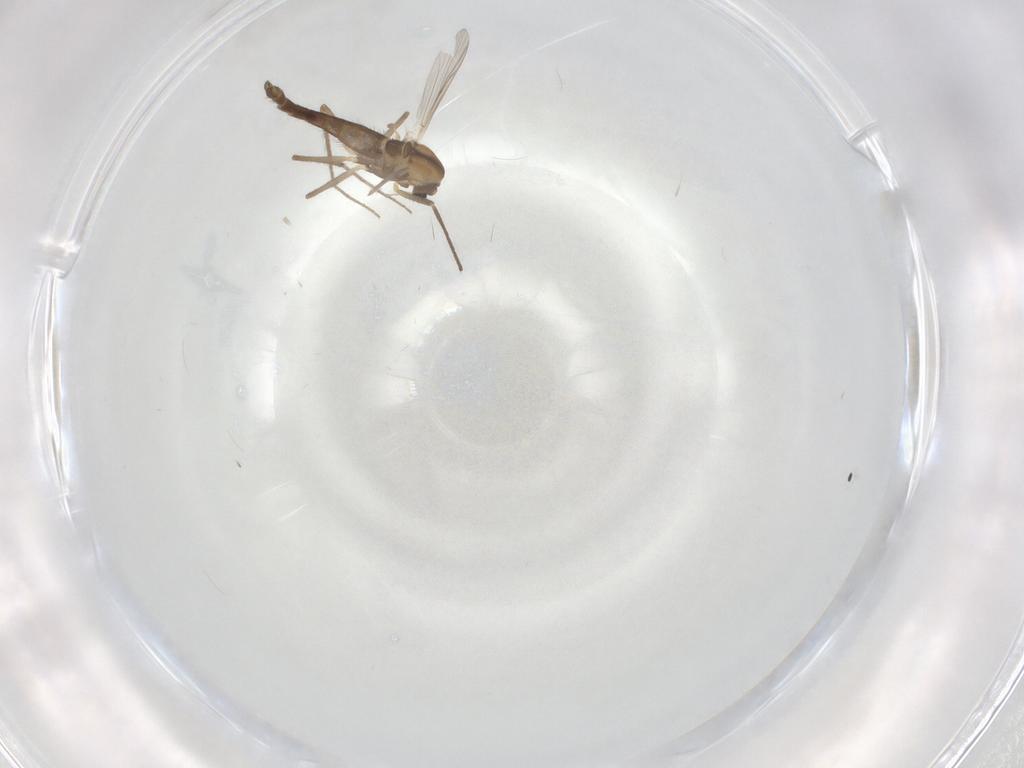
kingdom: Animalia
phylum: Arthropoda
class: Insecta
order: Diptera
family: Chironomidae
